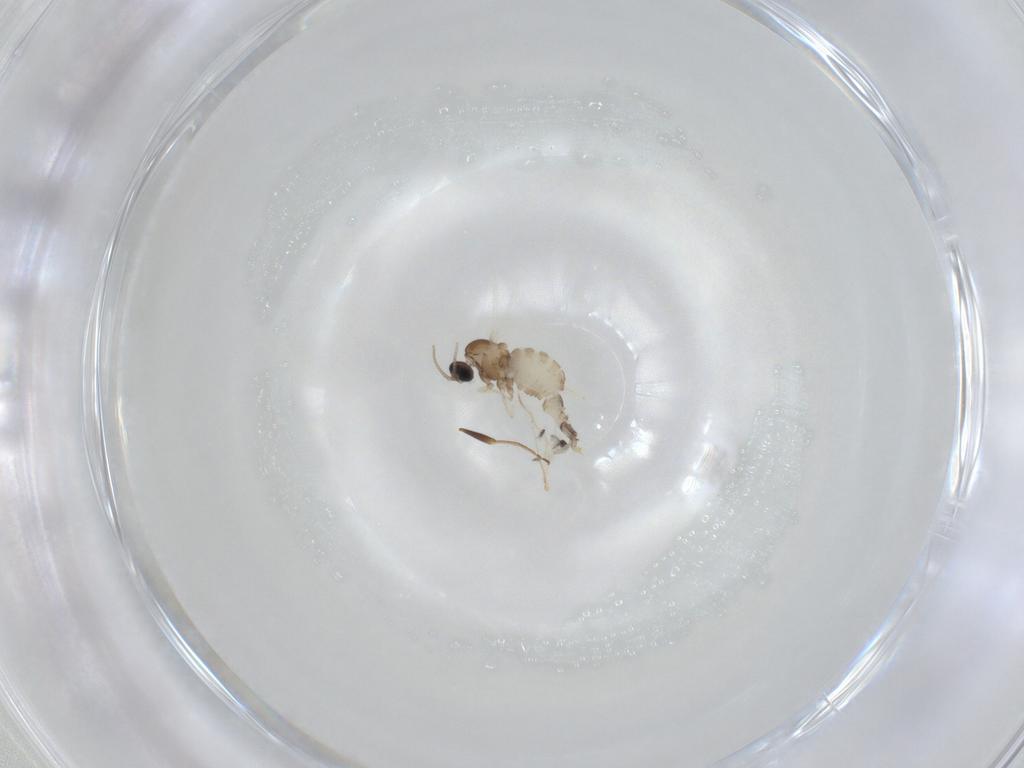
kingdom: Animalia
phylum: Arthropoda
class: Insecta
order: Diptera
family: Cecidomyiidae
